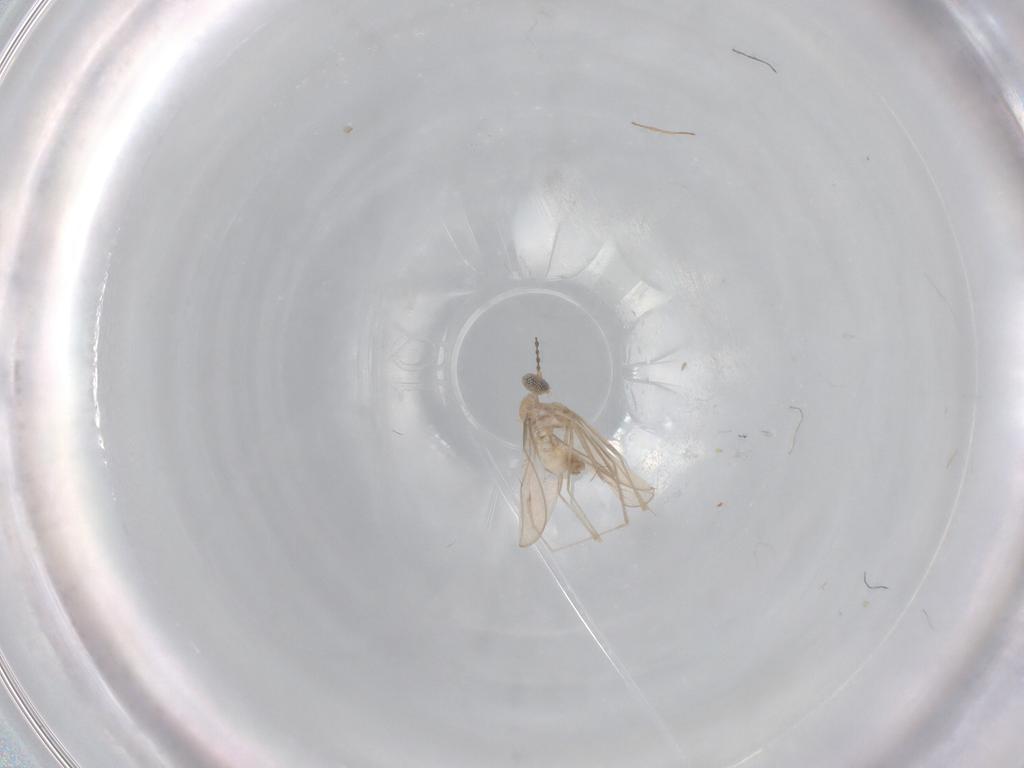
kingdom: Animalia
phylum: Arthropoda
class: Insecta
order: Diptera
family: Cecidomyiidae
